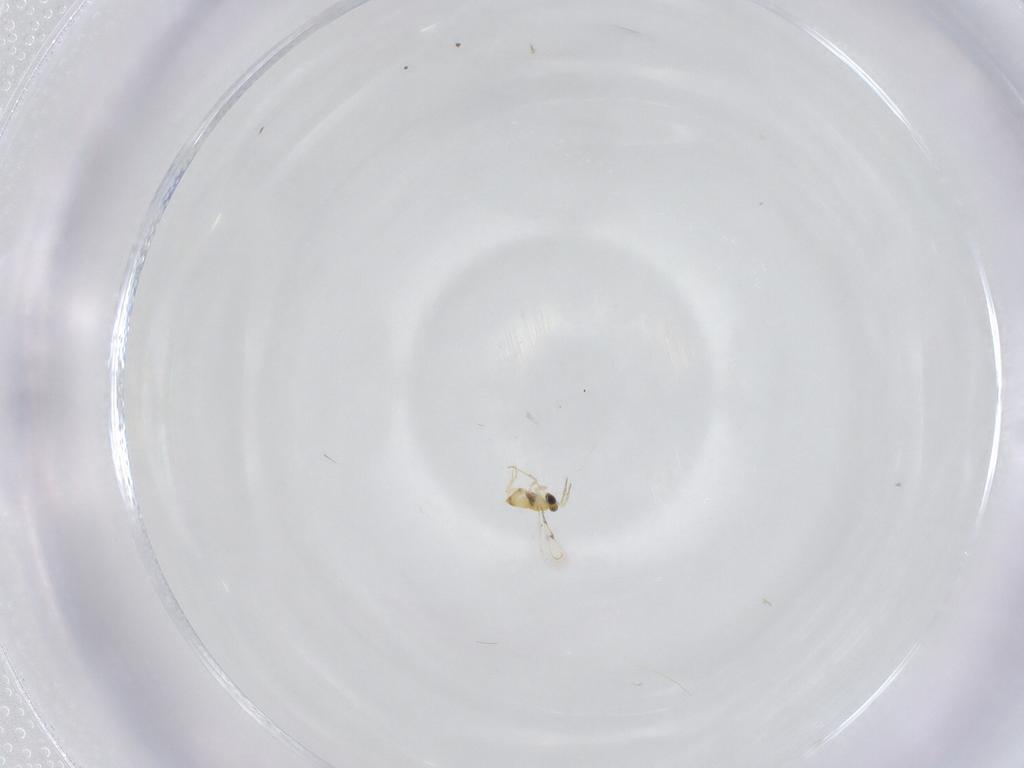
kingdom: Animalia
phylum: Arthropoda
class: Insecta
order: Hymenoptera
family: Trichogrammatidae
